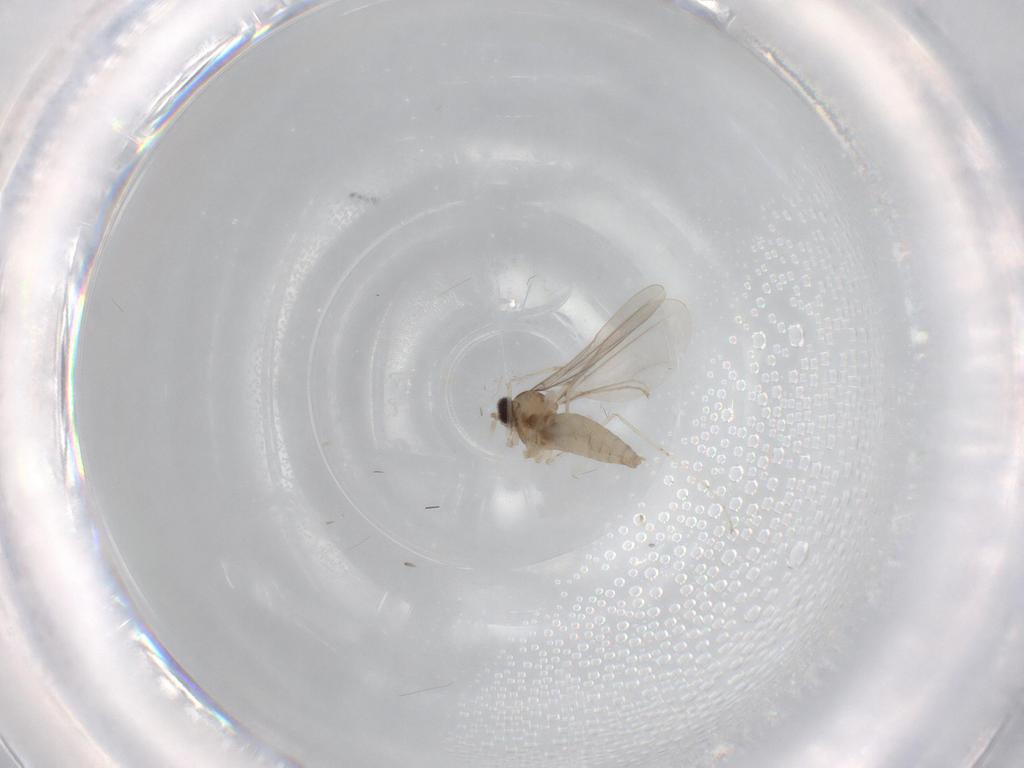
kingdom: Animalia
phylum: Arthropoda
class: Insecta
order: Diptera
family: Cecidomyiidae
